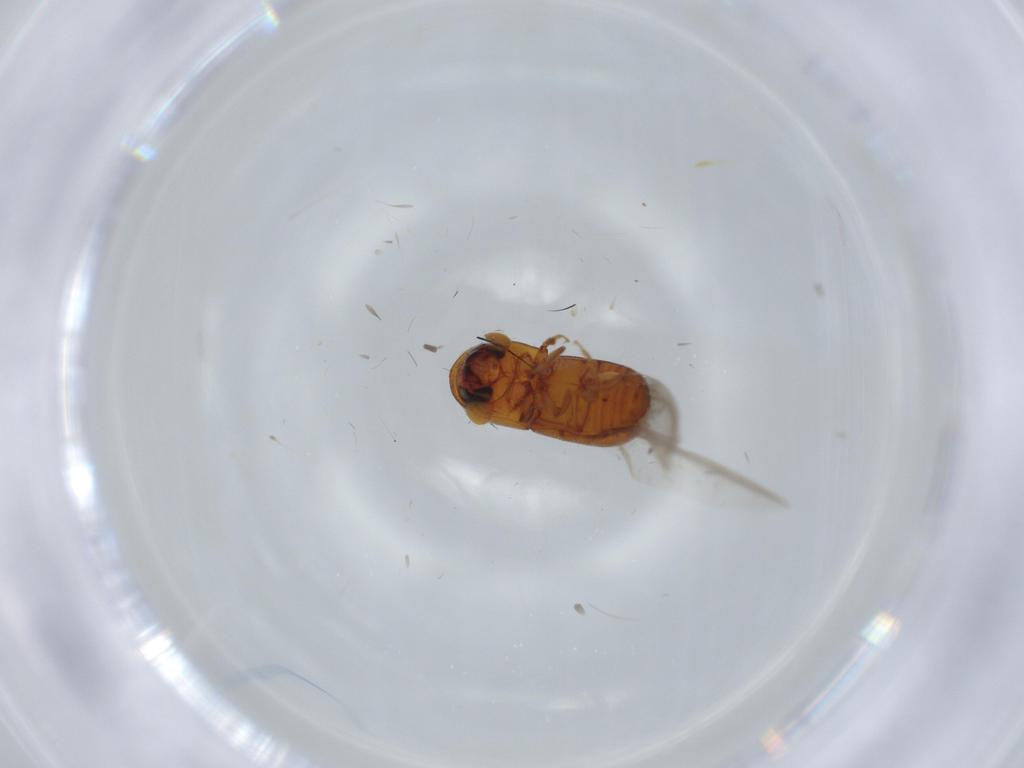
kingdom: Animalia
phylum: Arthropoda
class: Insecta
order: Coleoptera
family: Curculionidae
